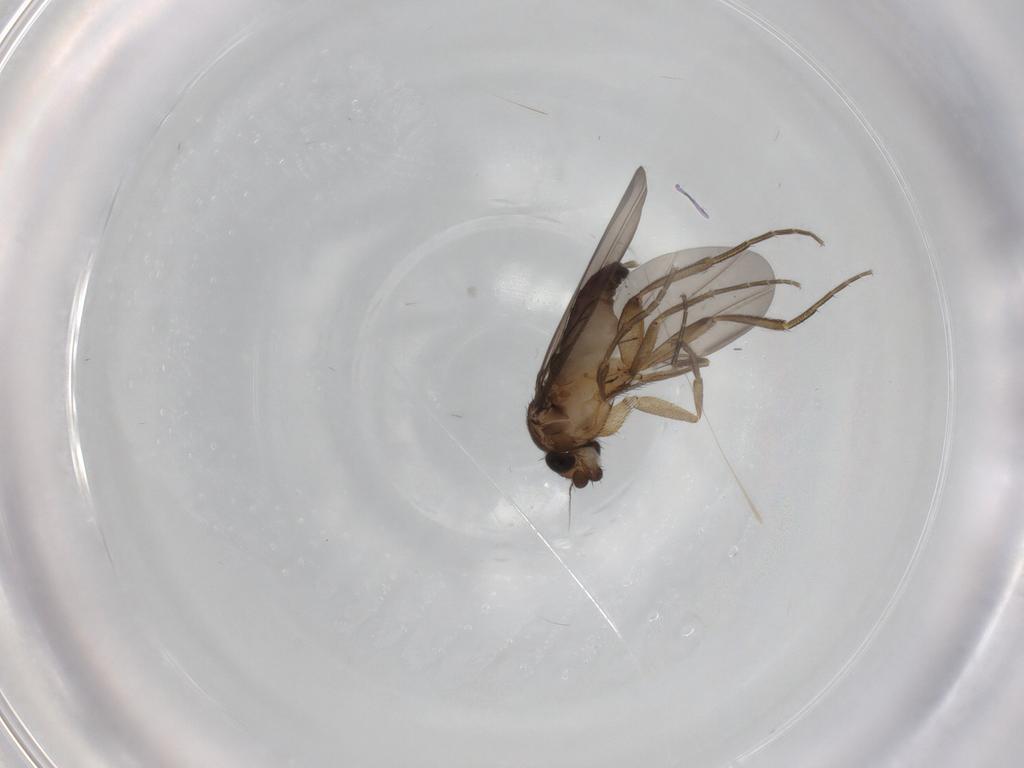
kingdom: Animalia
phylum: Arthropoda
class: Insecta
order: Diptera
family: Phoridae
